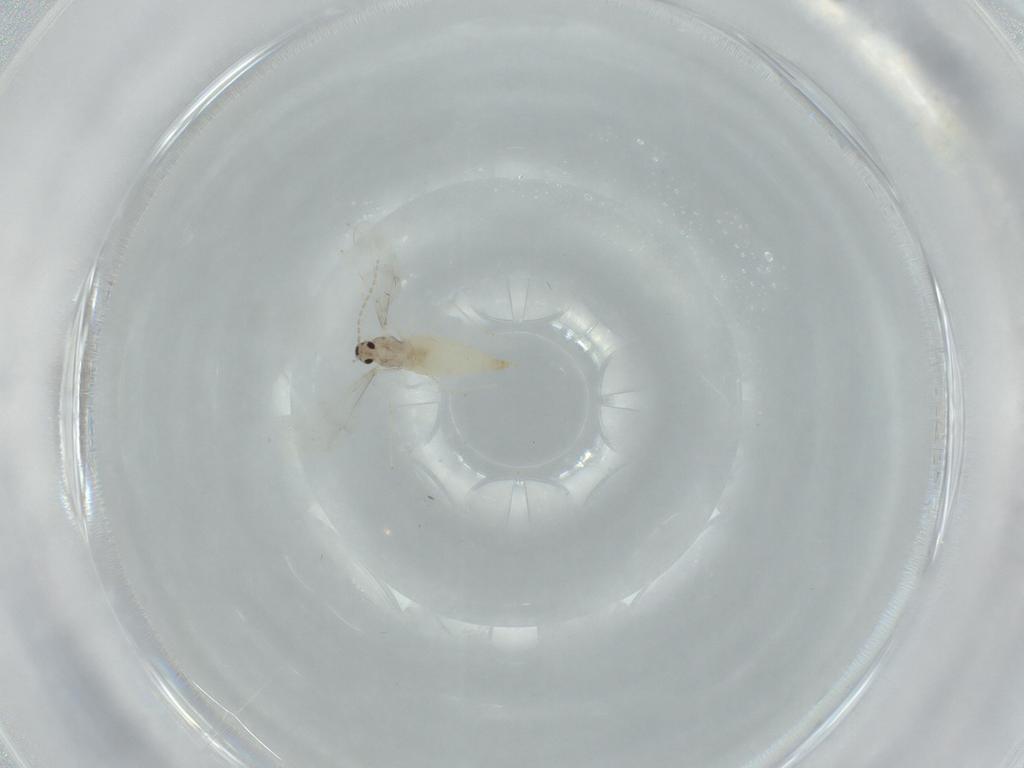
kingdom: Animalia
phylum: Arthropoda
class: Insecta
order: Diptera
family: Cecidomyiidae
